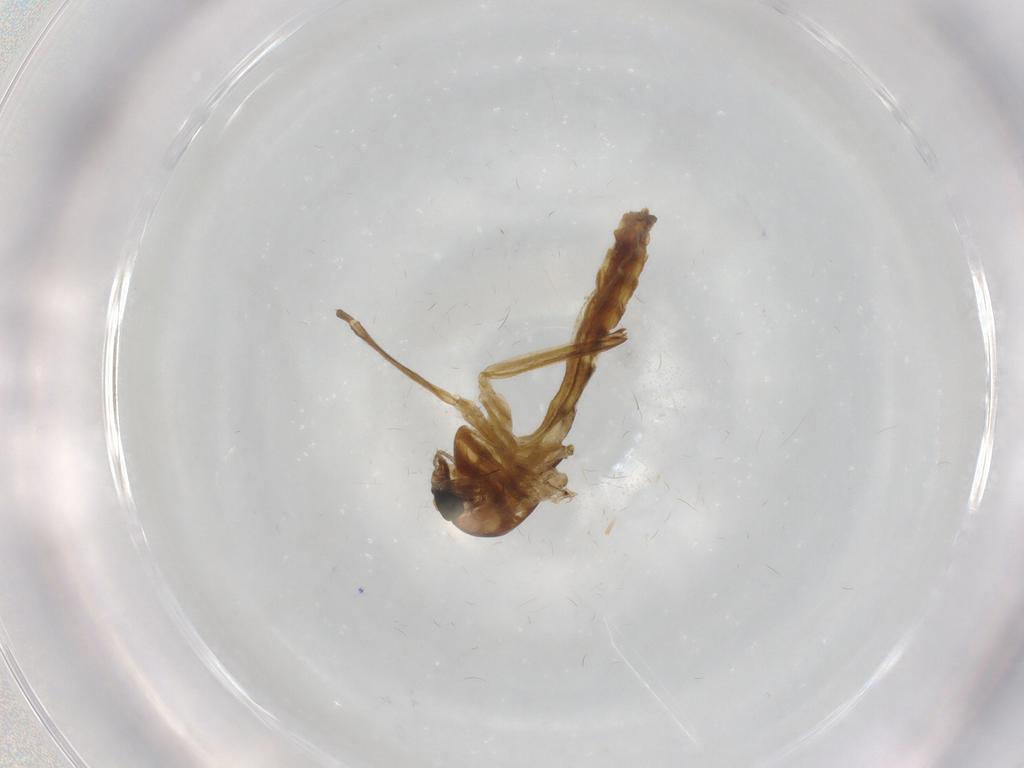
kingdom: Animalia
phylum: Arthropoda
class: Insecta
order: Diptera
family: Chironomidae
